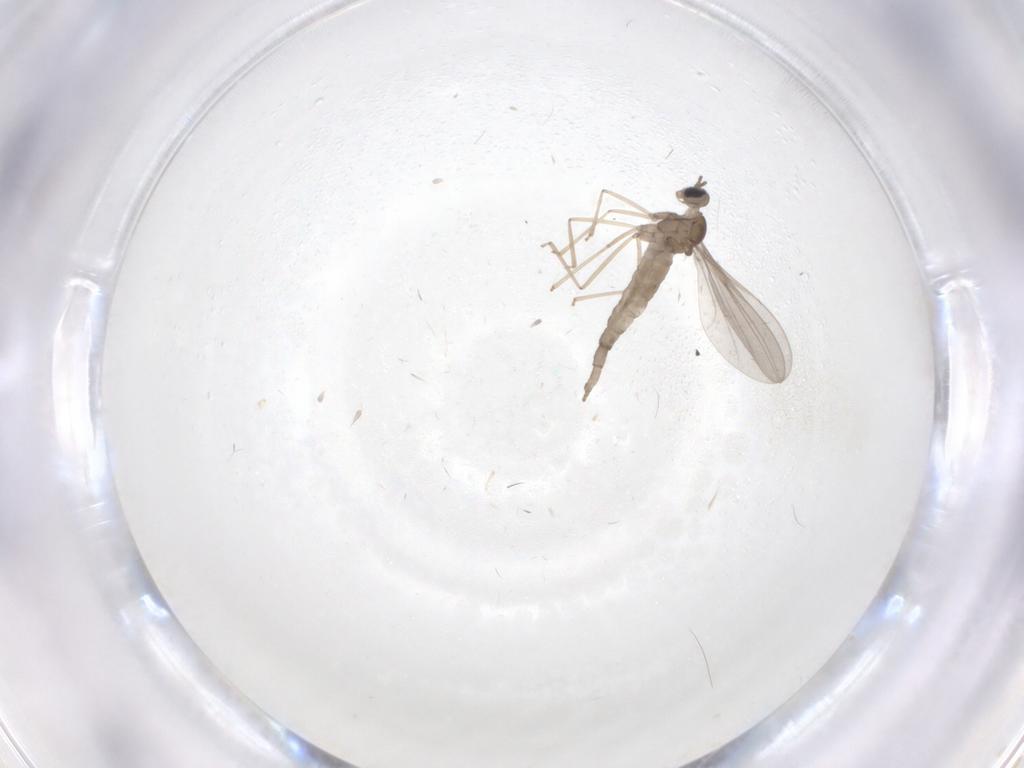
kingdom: Animalia
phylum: Arthropoda
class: Insecta
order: Diptera
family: Cecidomyiidae
